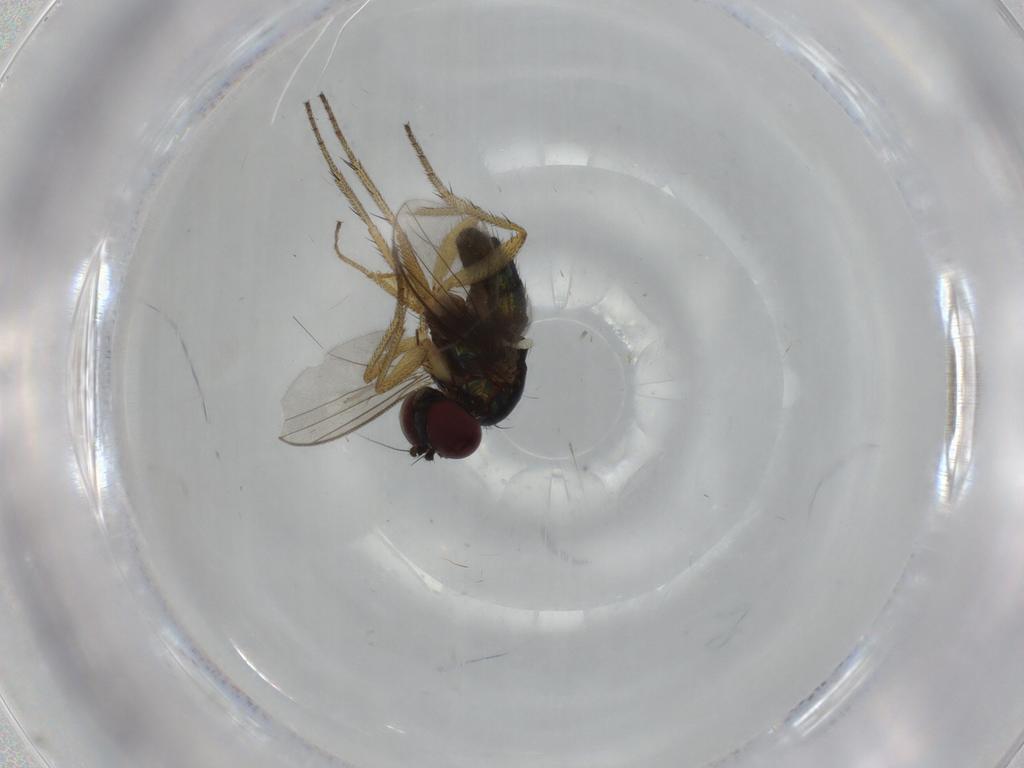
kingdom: Animalia
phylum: Arthropoda
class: Insecta
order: Diptera
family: Dolichopodidae
